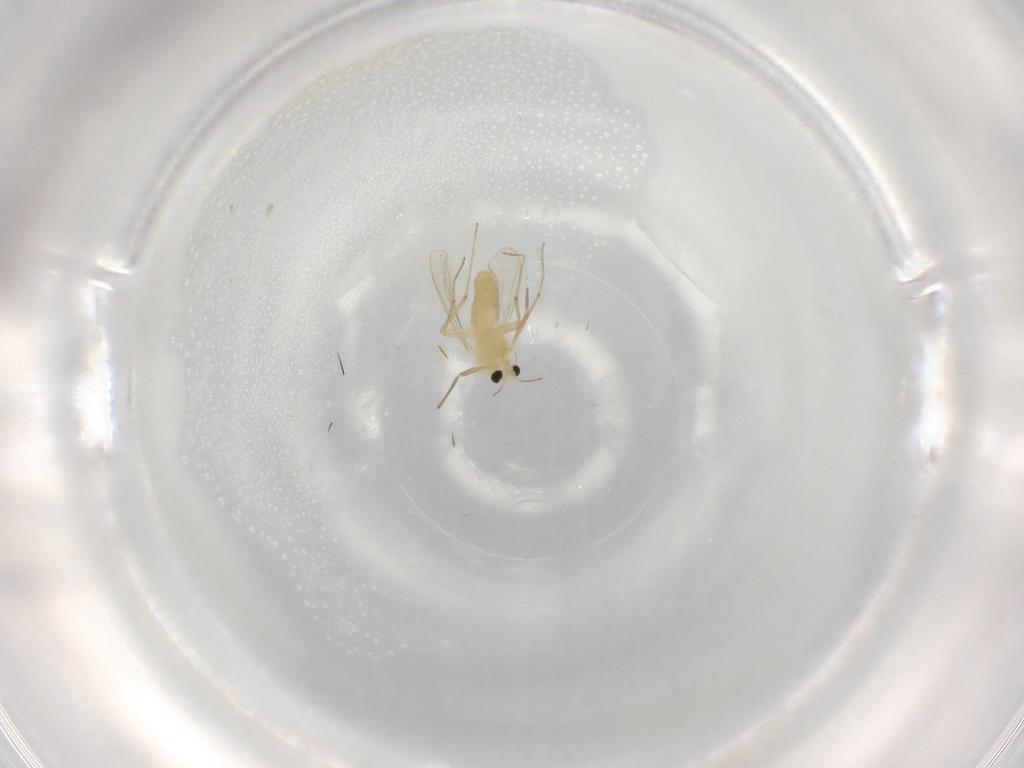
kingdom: Animalia
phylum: Arthropoda
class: Insecta
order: Diptera
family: Chironomidae
